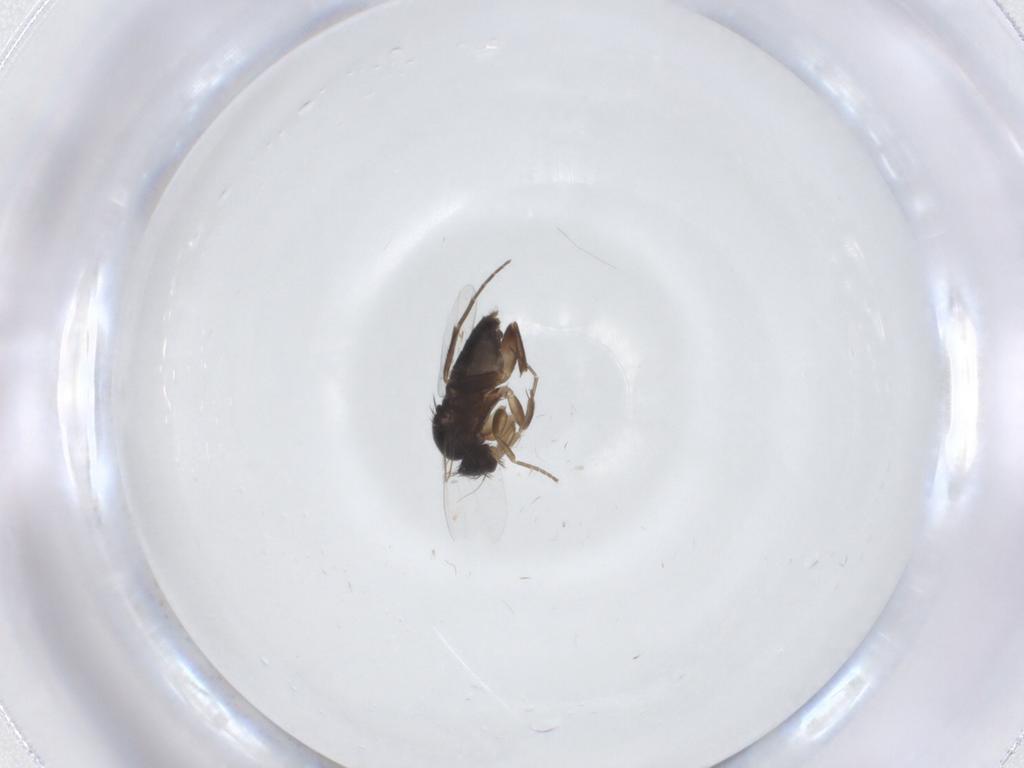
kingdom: Animalia
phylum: Arthropoda
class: Insecta
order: Diptera
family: Phoridae
